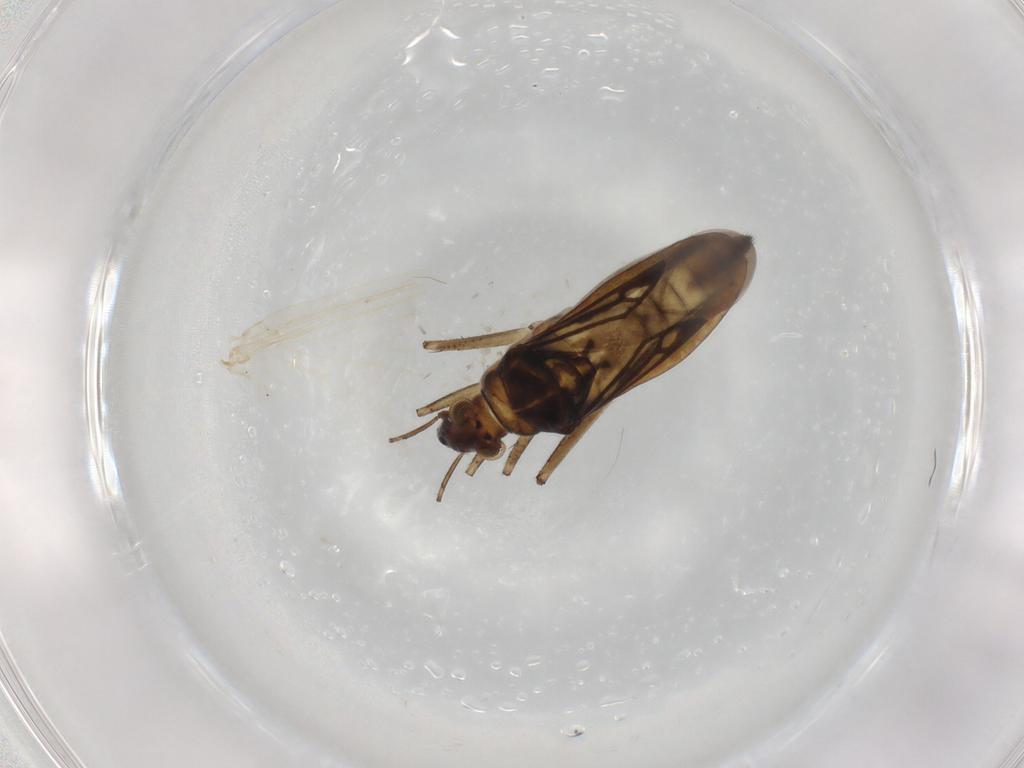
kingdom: Animalia
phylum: Arthropoda
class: Insecta
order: Hemiptera
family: Mesoveliidae
